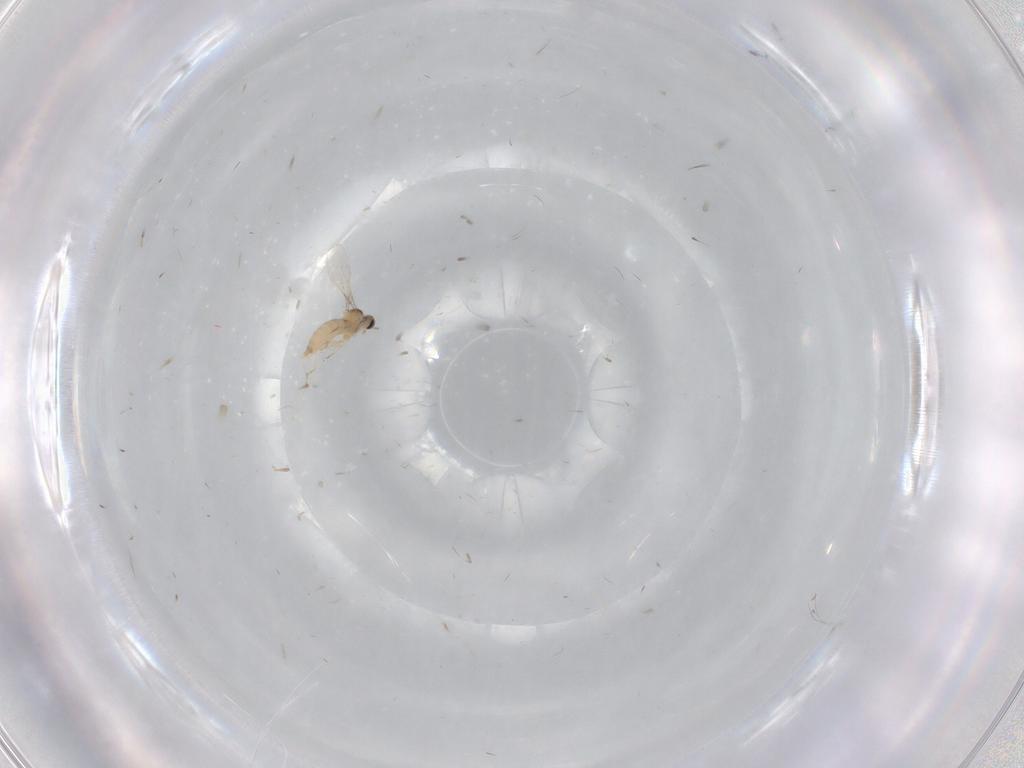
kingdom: Animalia
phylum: Arthropoda
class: Insecta
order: Diptera
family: Sciaridae
